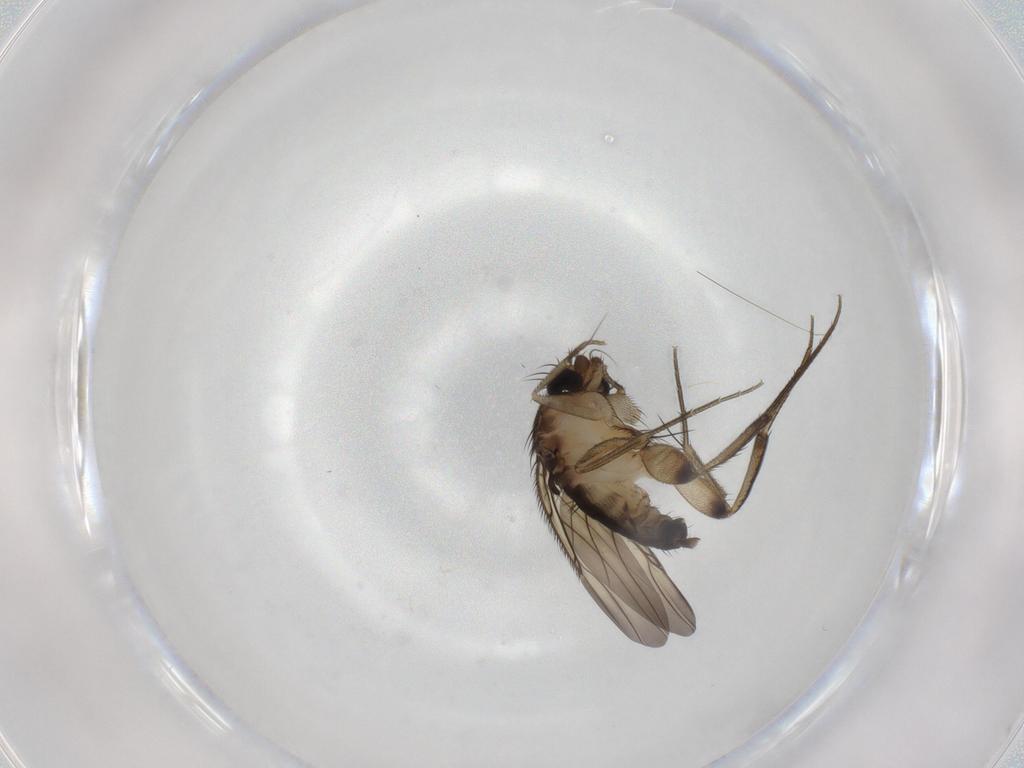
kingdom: Animalia
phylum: Arthropoda
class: Insecta
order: Diptera
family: Phoridae
